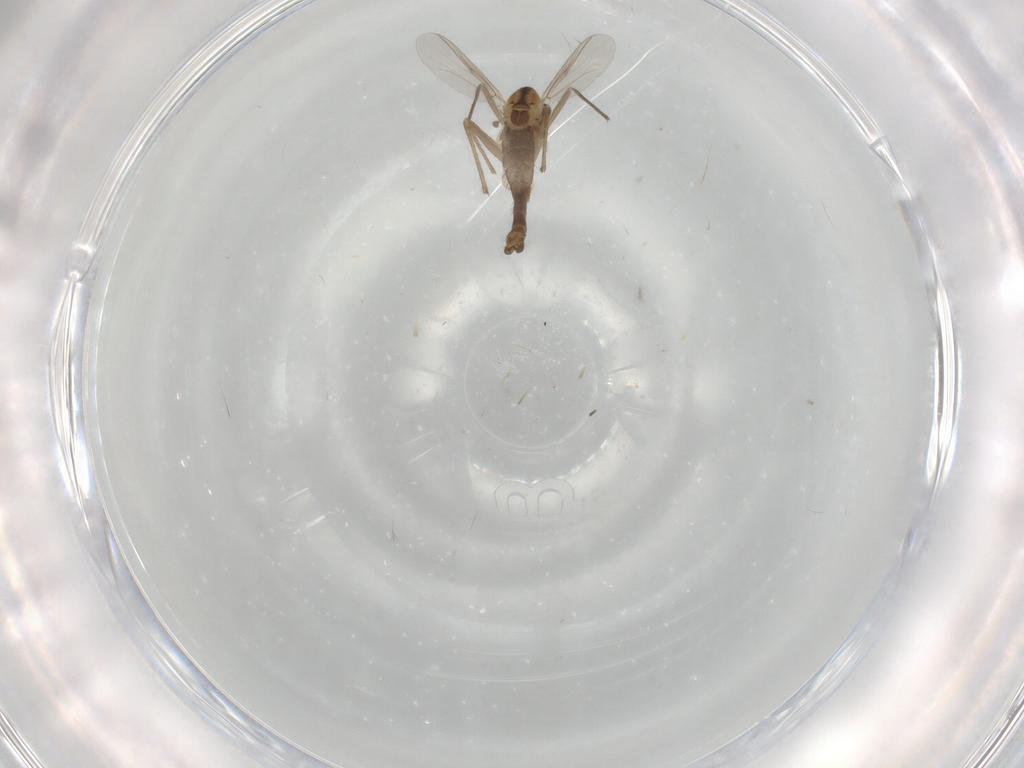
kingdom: Animalia
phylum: Arthropoda
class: Insecta
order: Diptera
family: Chironomidae
